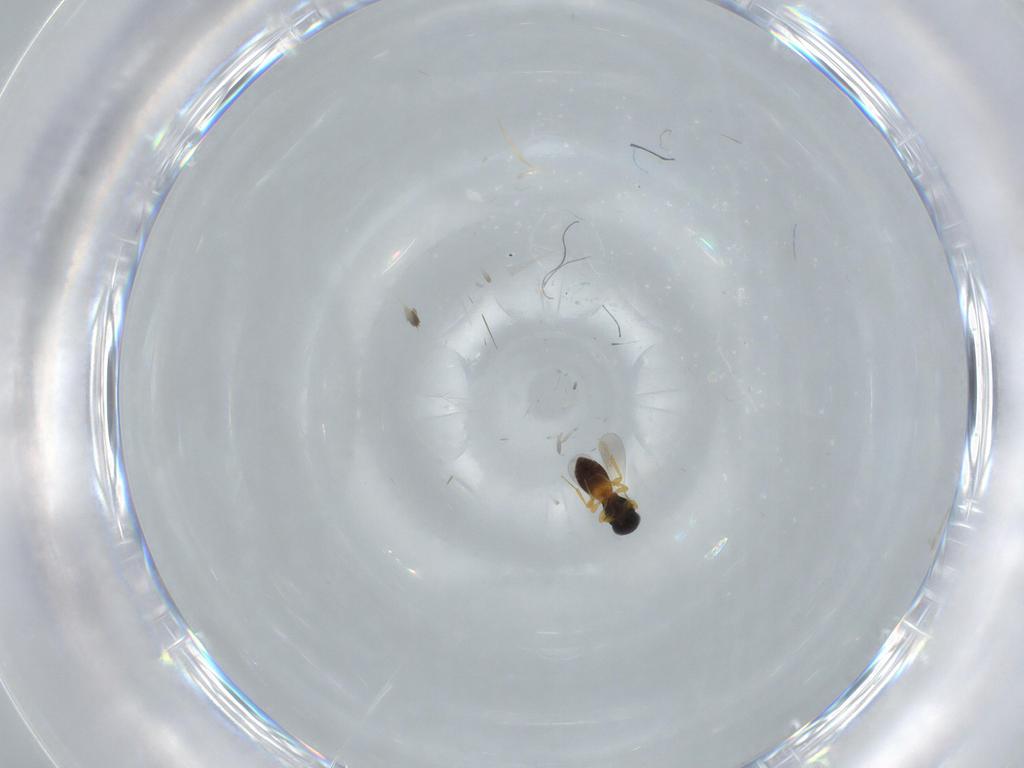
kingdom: Animalia
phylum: Arthropoda
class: Insecta
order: Hymenoptera
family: Platygastridae
